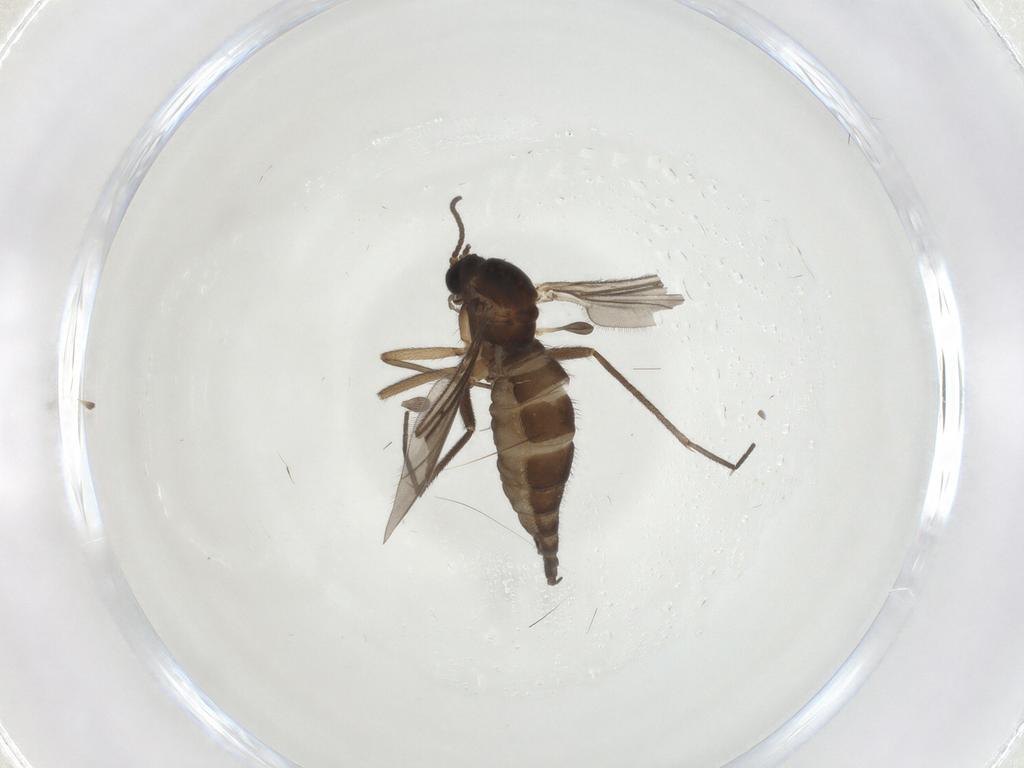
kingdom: Animalia
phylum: Arthropoda
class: Insecta
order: Diptera
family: Sciaridae
